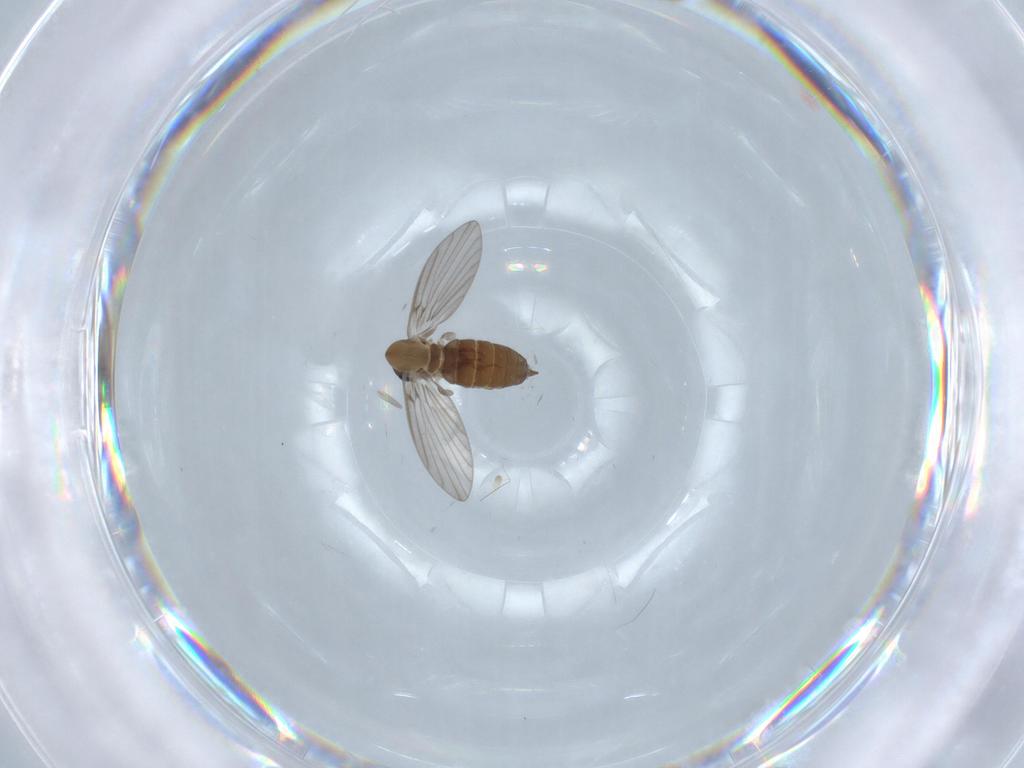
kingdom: Animalia
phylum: Arthropoda
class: Insecta
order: Diptera
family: Psychodidae
